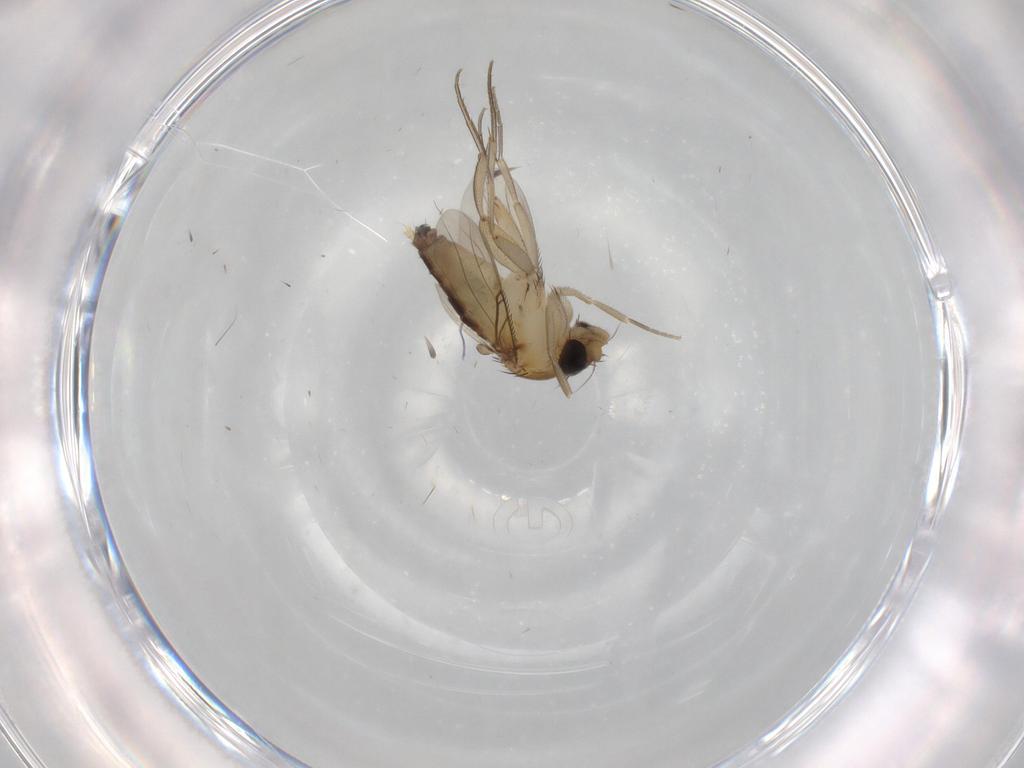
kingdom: Animalia
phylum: Arthropoda
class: Insecta
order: Diptera
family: Phoridae
